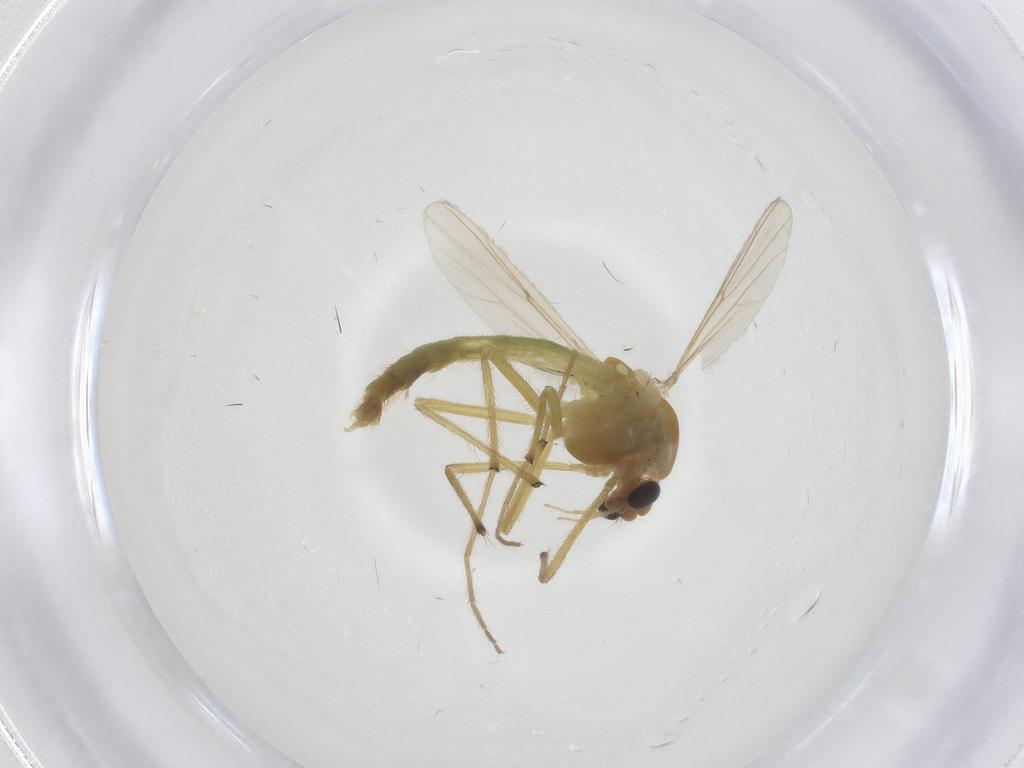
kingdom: Animalia
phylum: Arthropoda
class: Insecta
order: Diptera
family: Chironomidae
